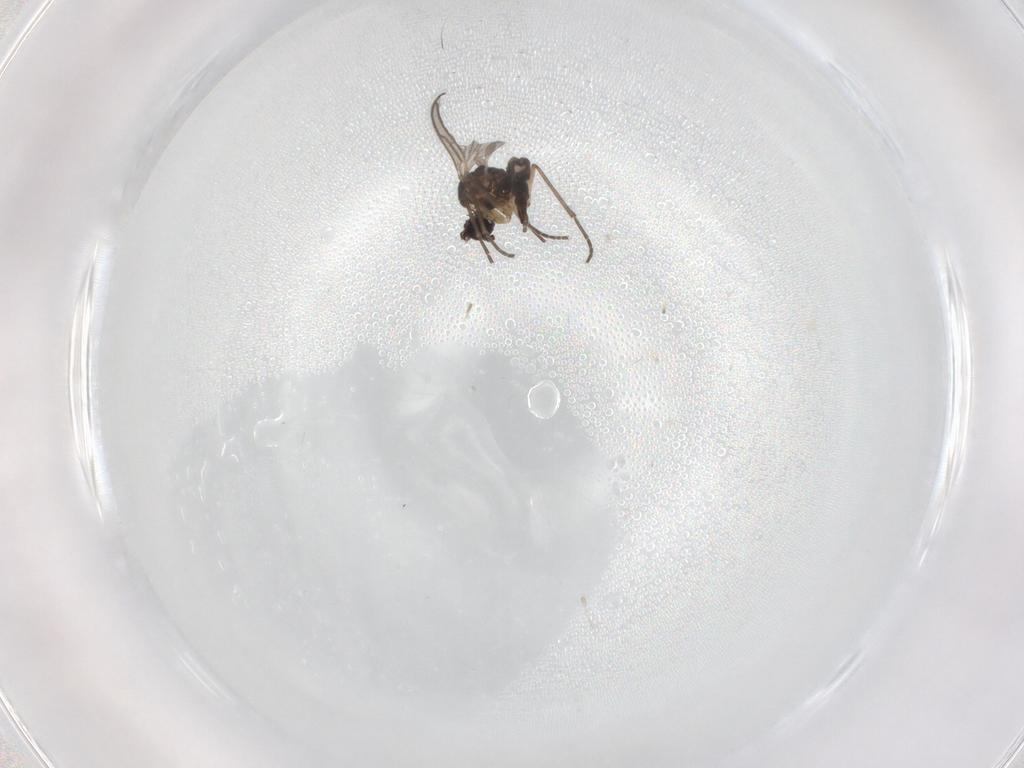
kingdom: Animalia
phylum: Arthropoda
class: Insecta
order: Diptera
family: Sciaridae
